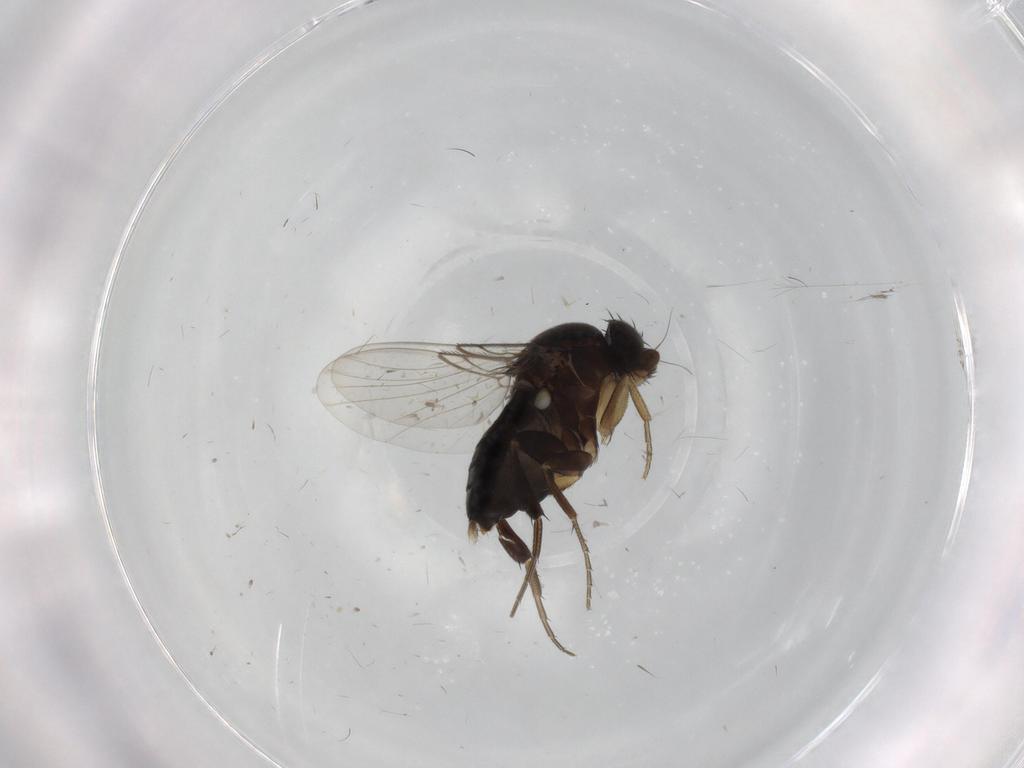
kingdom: Animalia
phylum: Arthropoda
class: Insecta
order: Diptera
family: Phoridae
